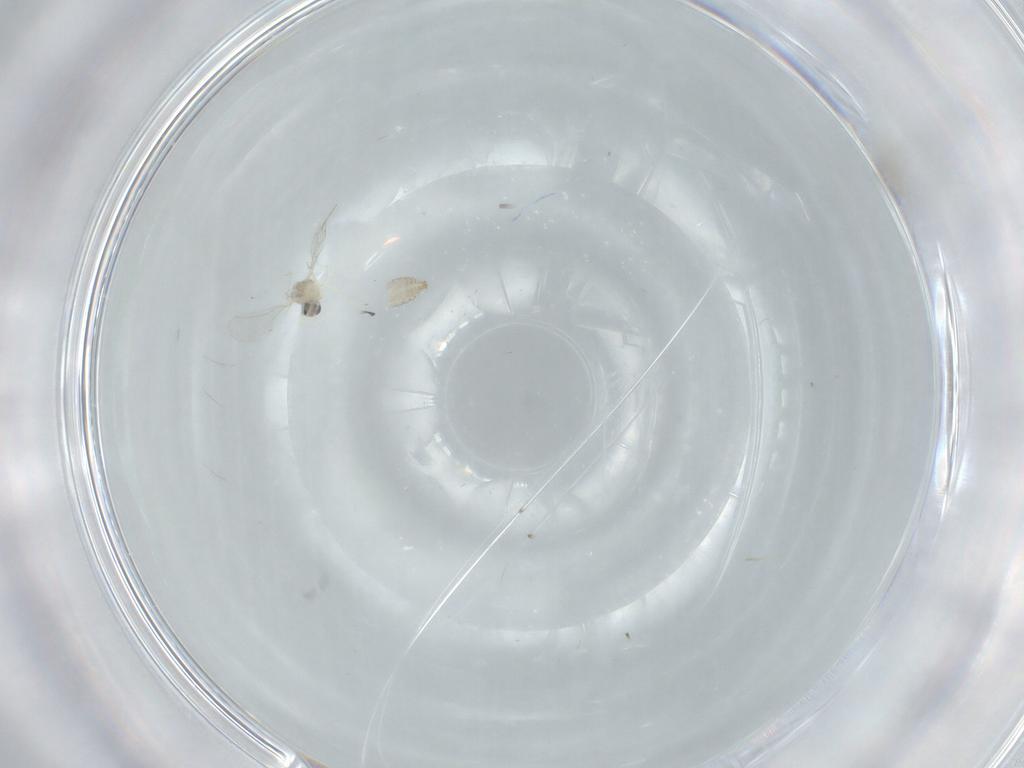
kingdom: Animalia
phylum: Arthropoda
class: Insecta
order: Diptera
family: Cecidomyiidae
